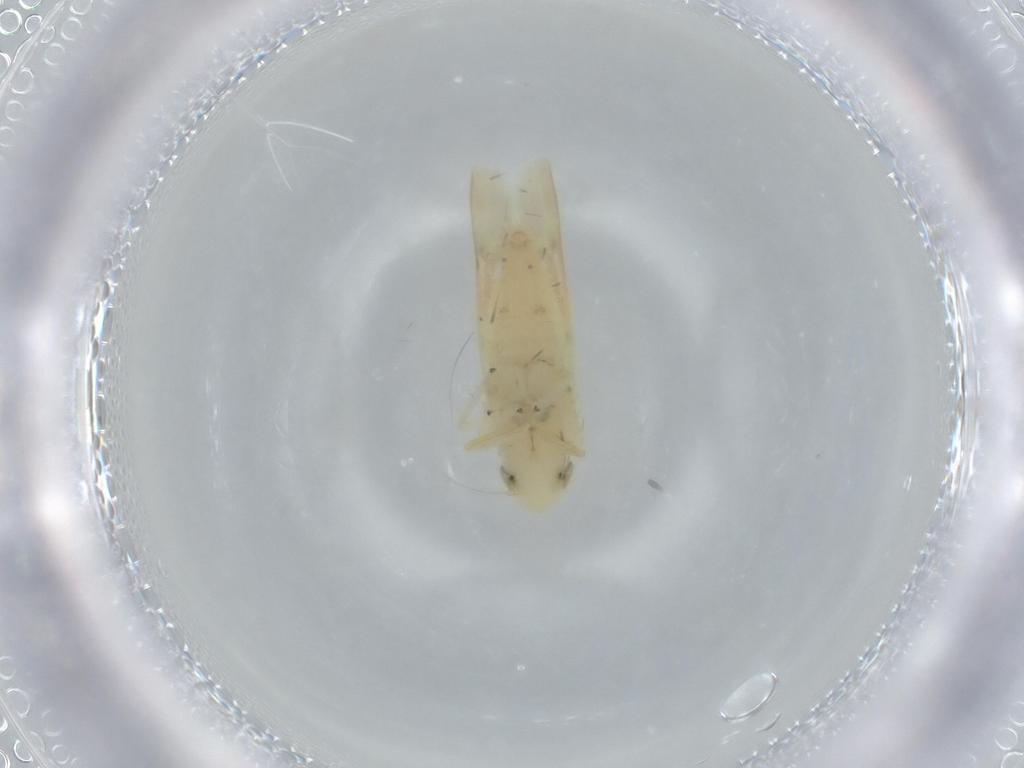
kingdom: Animalia
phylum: Arthropoda
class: Insecta
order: Hemiptera
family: Cicadellidae
